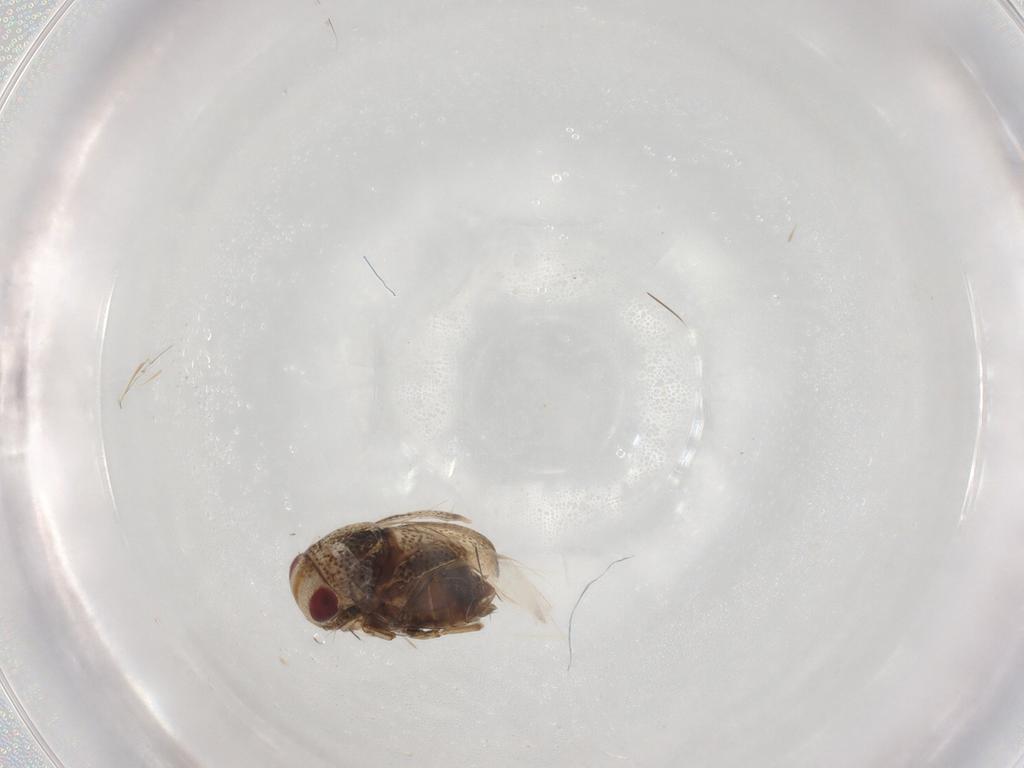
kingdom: Animalia
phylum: Arthropoda
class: Insecta
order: Hemiptera
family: Pleidae
